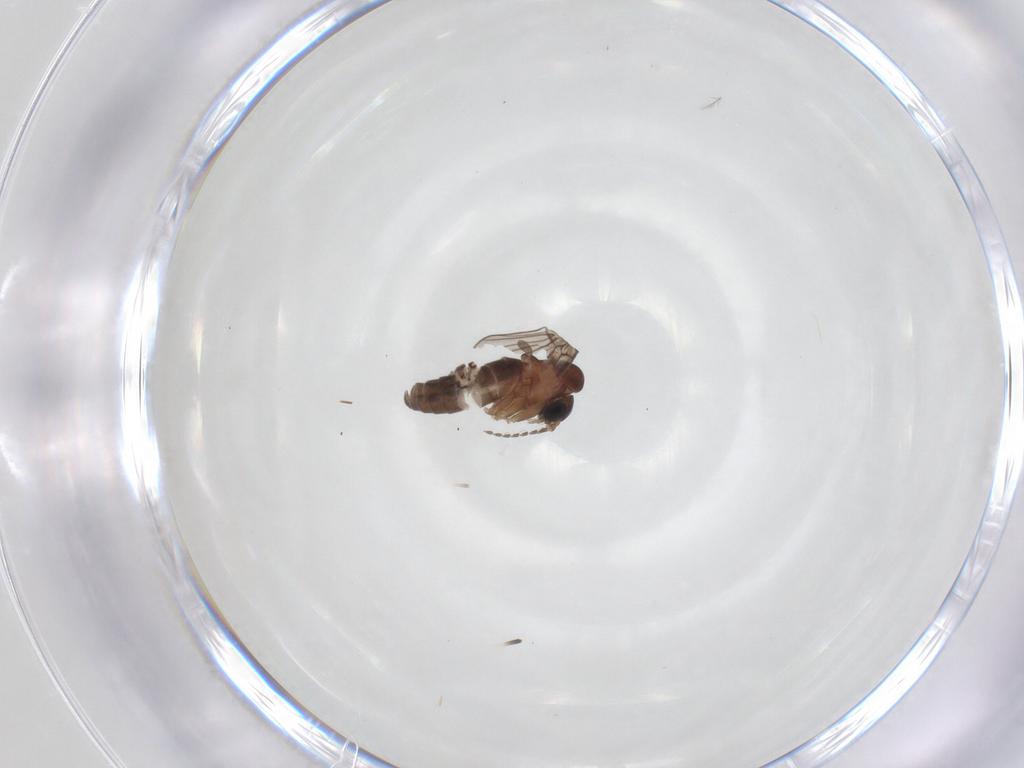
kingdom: Animalia
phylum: Arthropoda
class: Insecta
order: Diptera
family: Psychodidae
